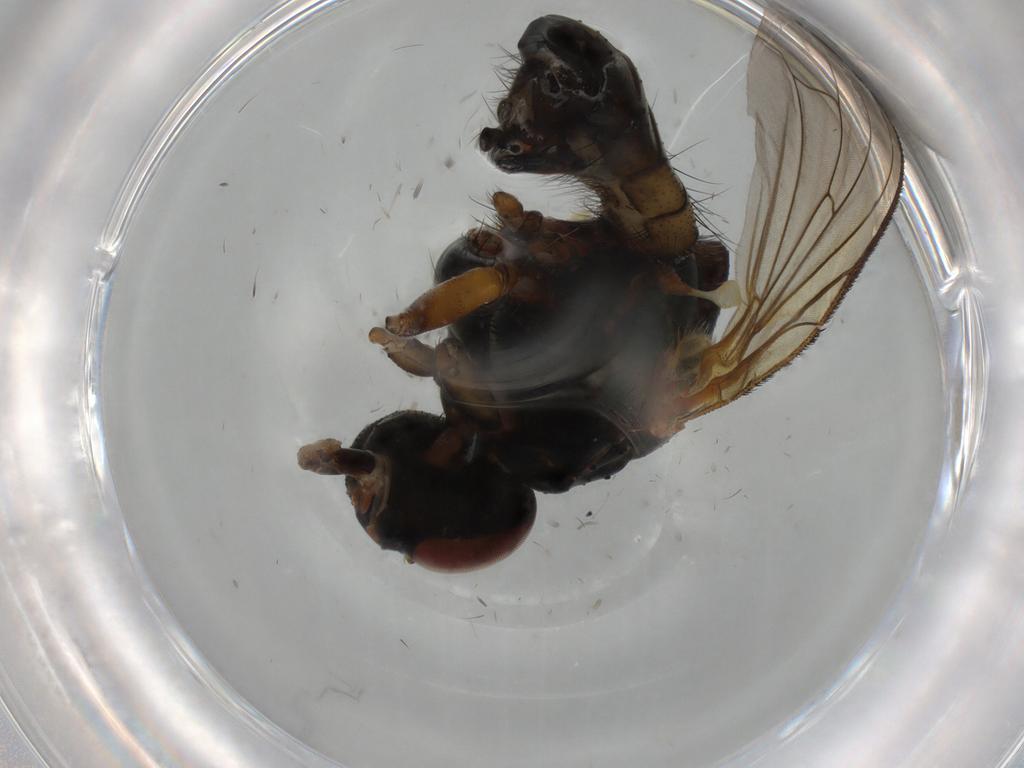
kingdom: Animalia
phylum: Arthropoda
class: Insecta
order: Diptera
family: Anthomyiidae
